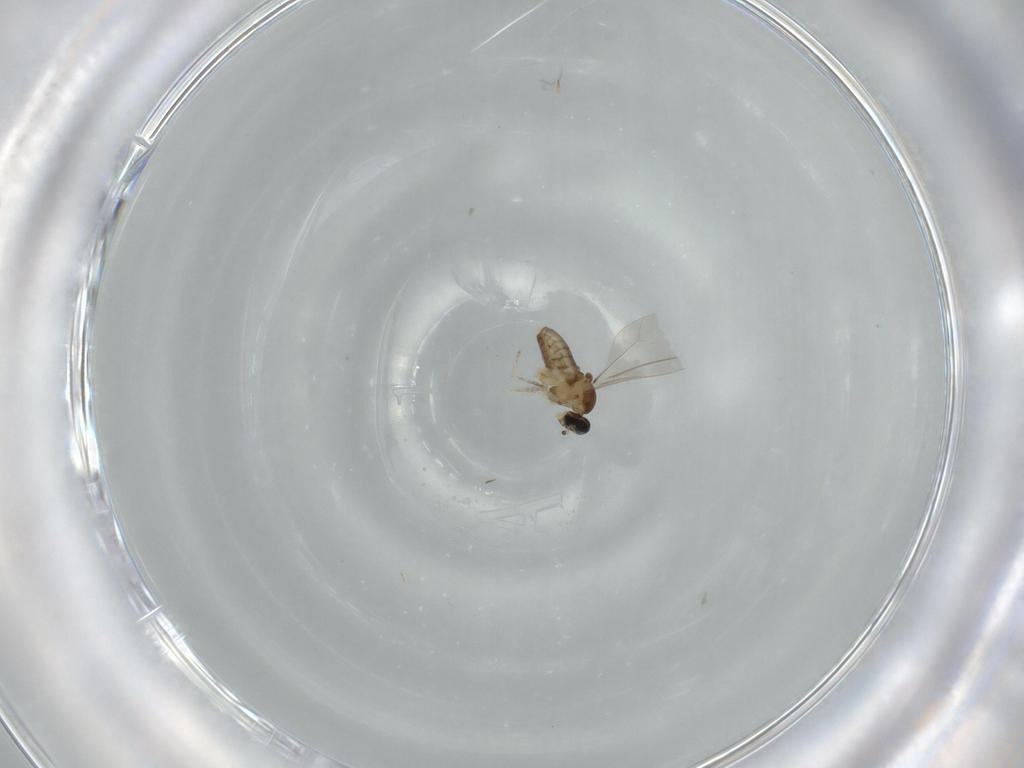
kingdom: Animalia
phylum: Arthropoda
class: Insecta
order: Diptera
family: Cecidomyiidae
